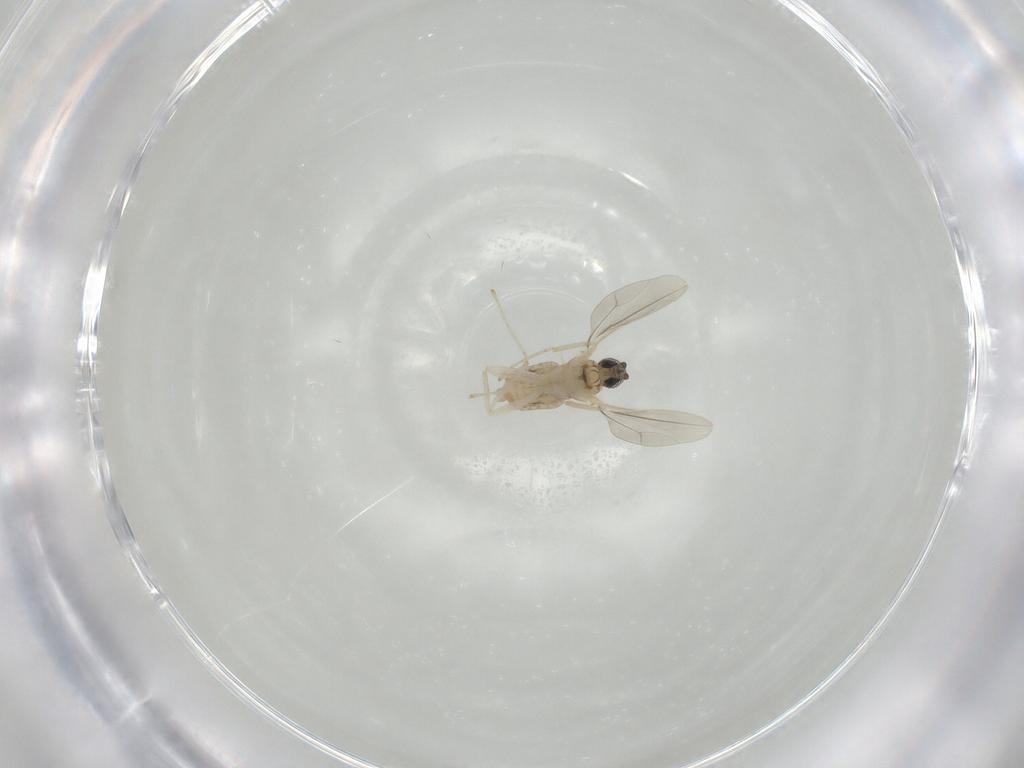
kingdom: Animalia
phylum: Arthropoda
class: Insecta
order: Diptera
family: Cecidomyiidae
